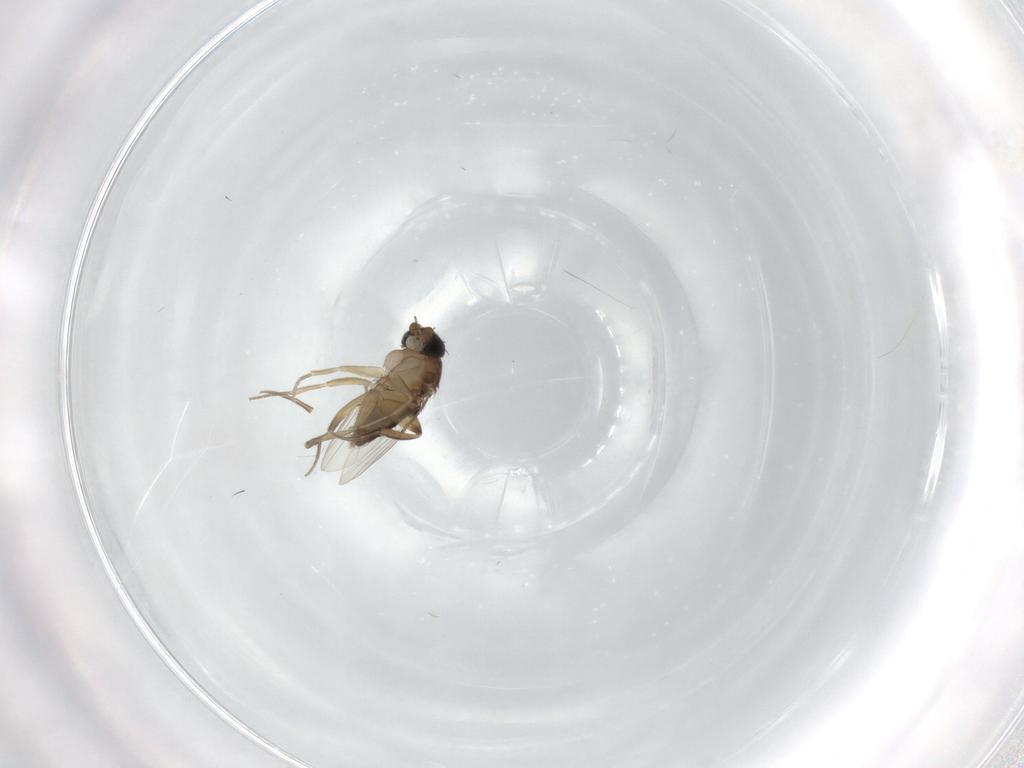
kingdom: Animalia
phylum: Arthropoda
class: Insecta
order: Diptera
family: Phoridae
